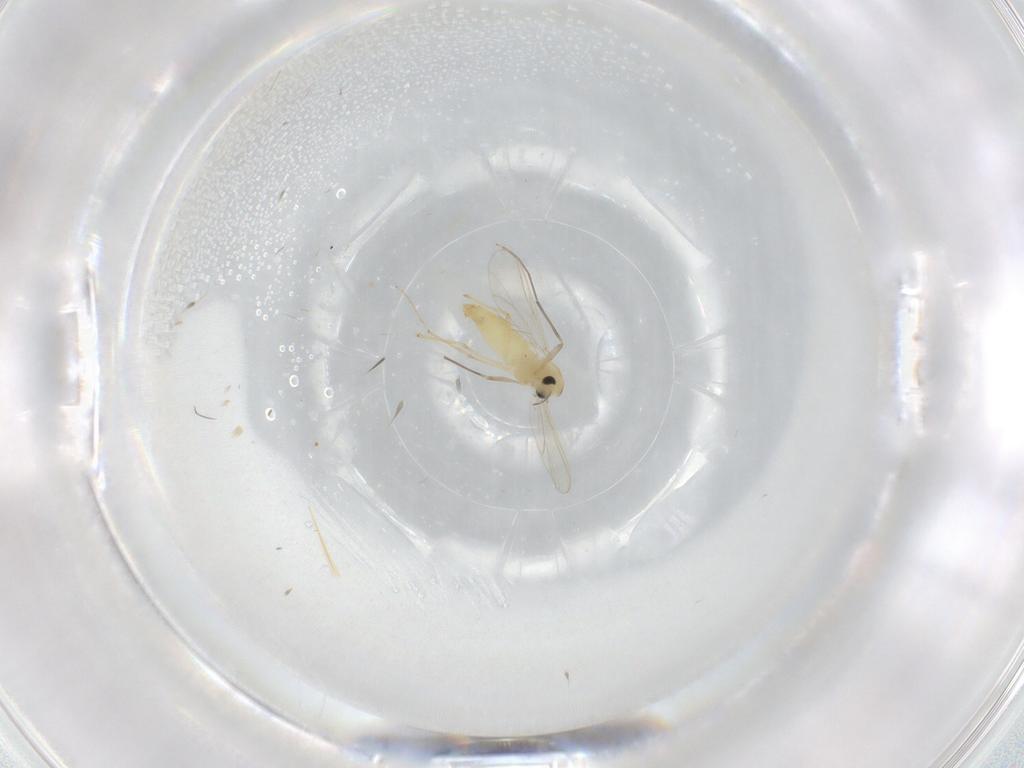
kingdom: Animalia
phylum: Arthropoda
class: Insecta
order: Diptera
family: Chironomidae
